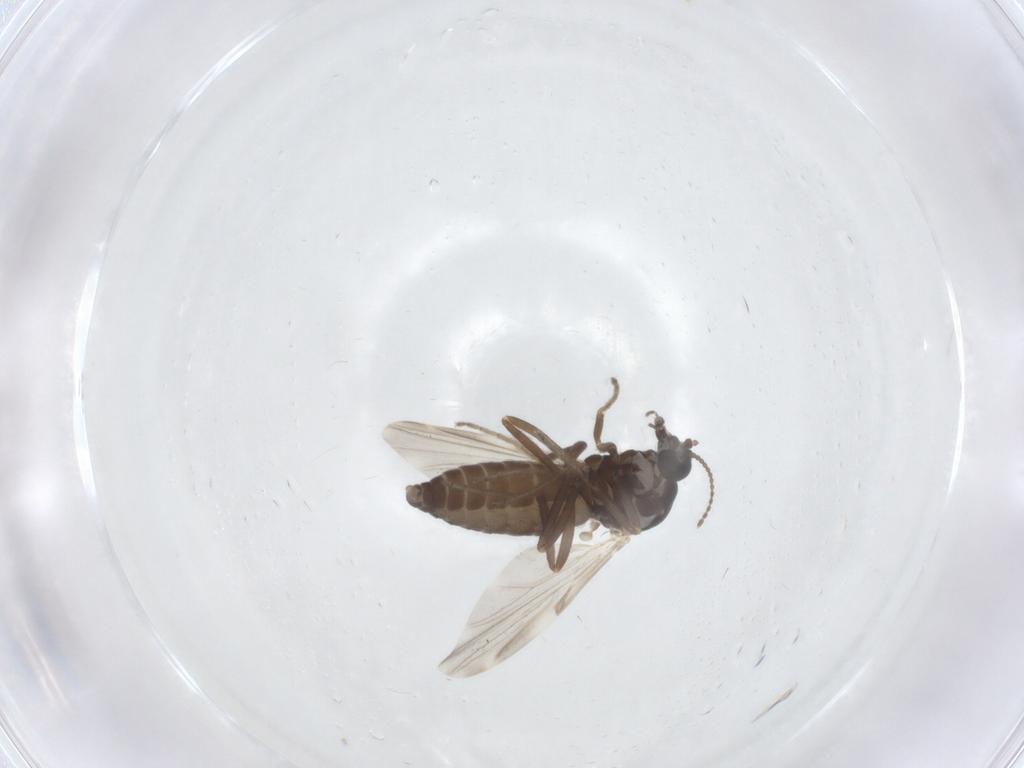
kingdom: Animalia
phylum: Arthropoda
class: Insecta
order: Diptera
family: Ceratopogonidae
